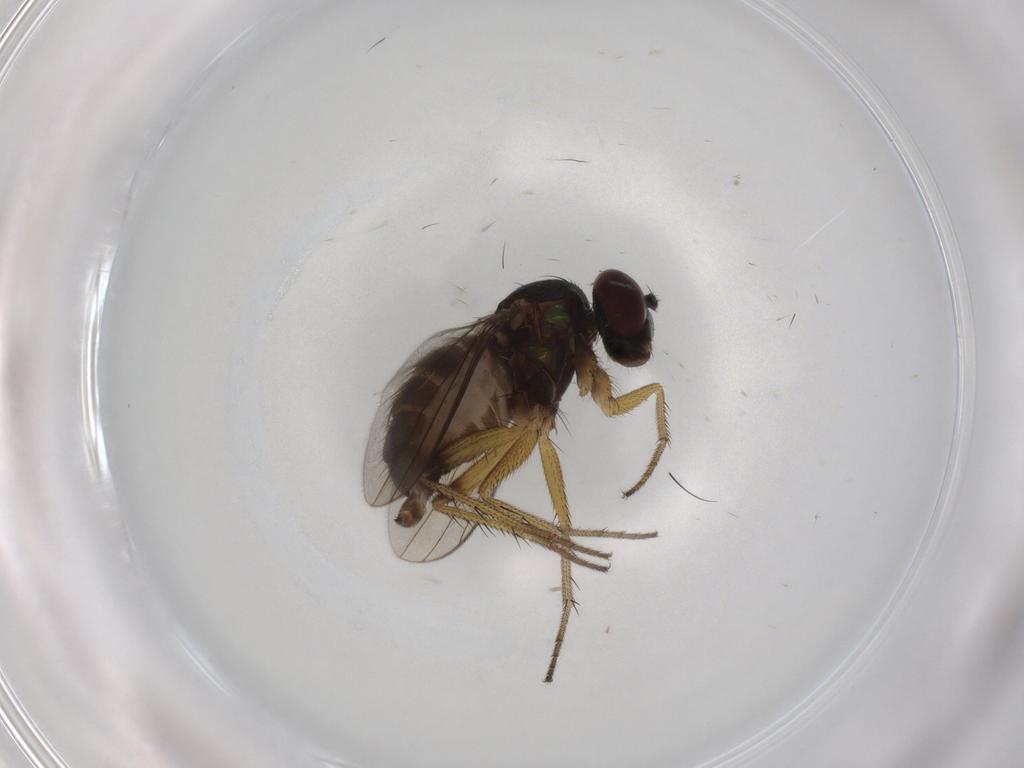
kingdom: Animalia
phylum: Arthropoda
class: Insecta
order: Diptera
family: Dolichopodidae
